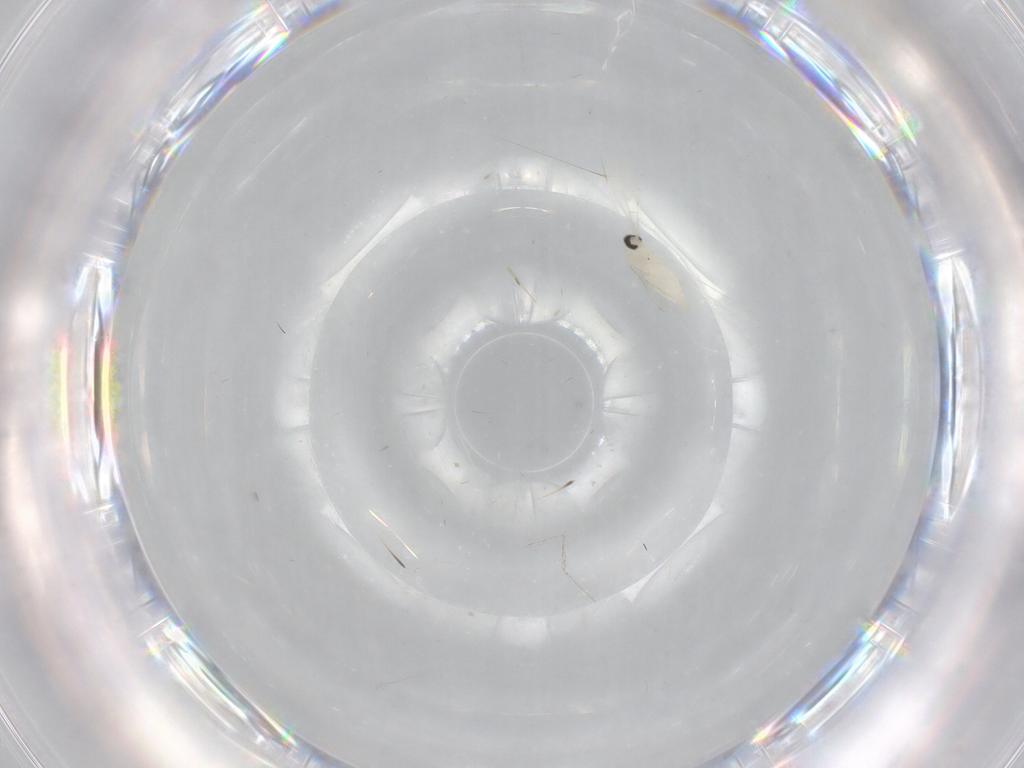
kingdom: Animalia
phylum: Arthropoda
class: Insecta
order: Diptera
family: Cecidomyiidae
